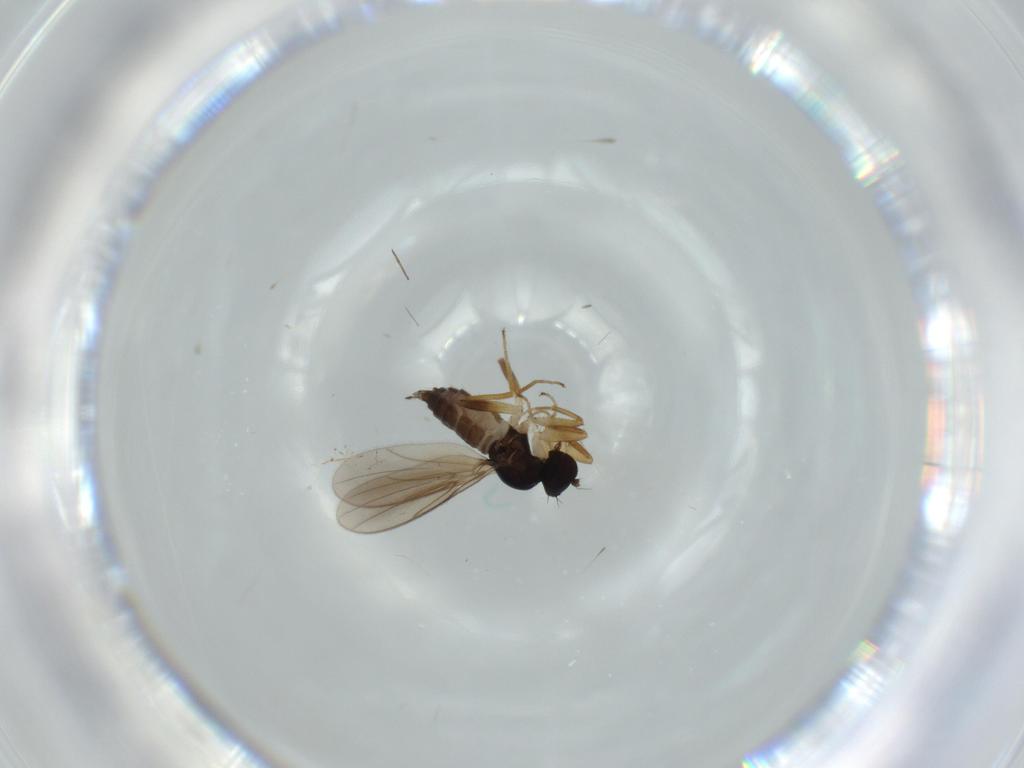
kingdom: Animalia
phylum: Arthropoda
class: Insecta
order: Diptera
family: Hybotidae
